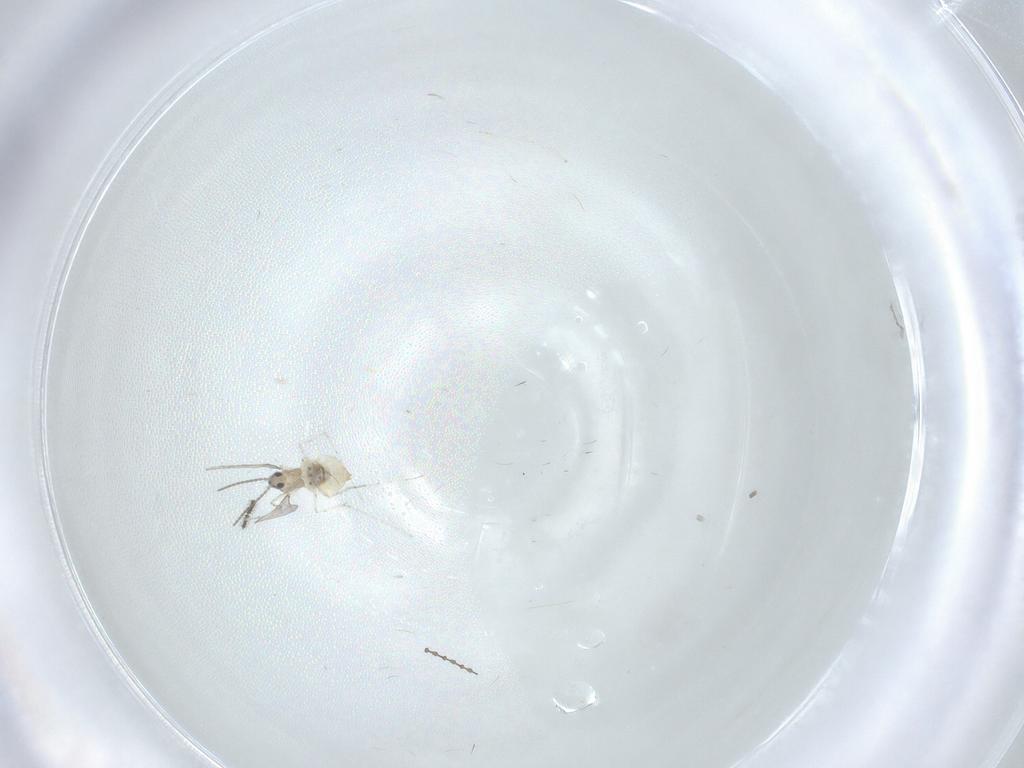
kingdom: Animalia
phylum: Arthropoda
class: Insecta
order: Diptera
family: Cecidomyiidae
